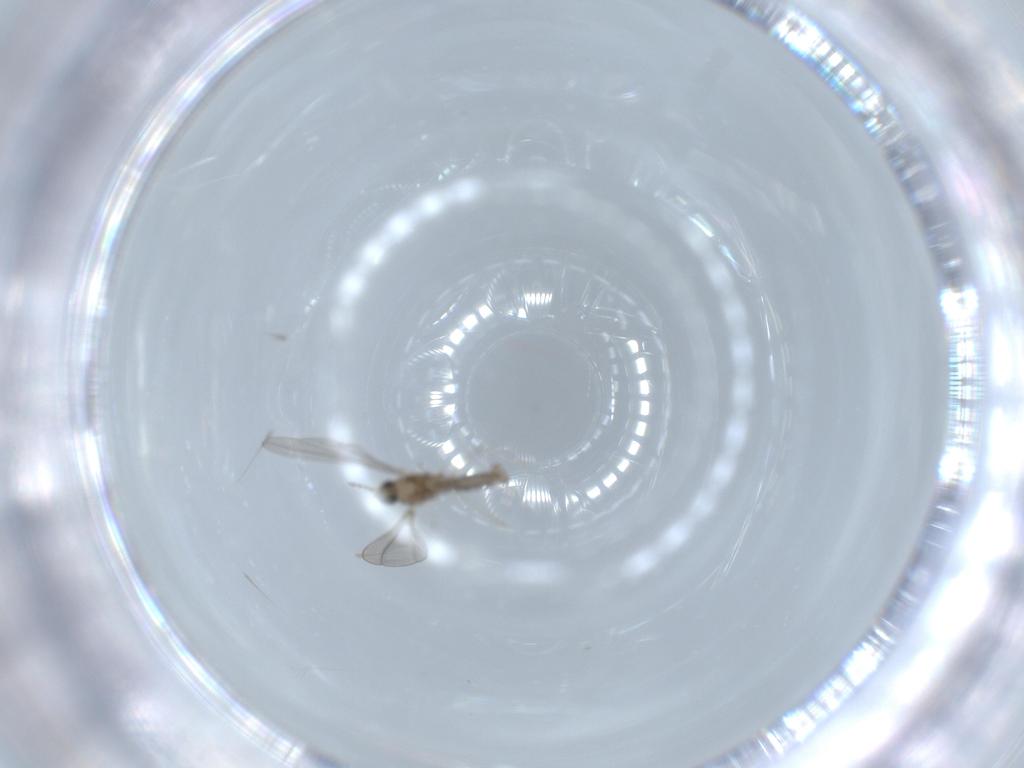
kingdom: Animalia
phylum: Arthropoda
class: Insecta
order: Diptera
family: Cecidomyiidae
